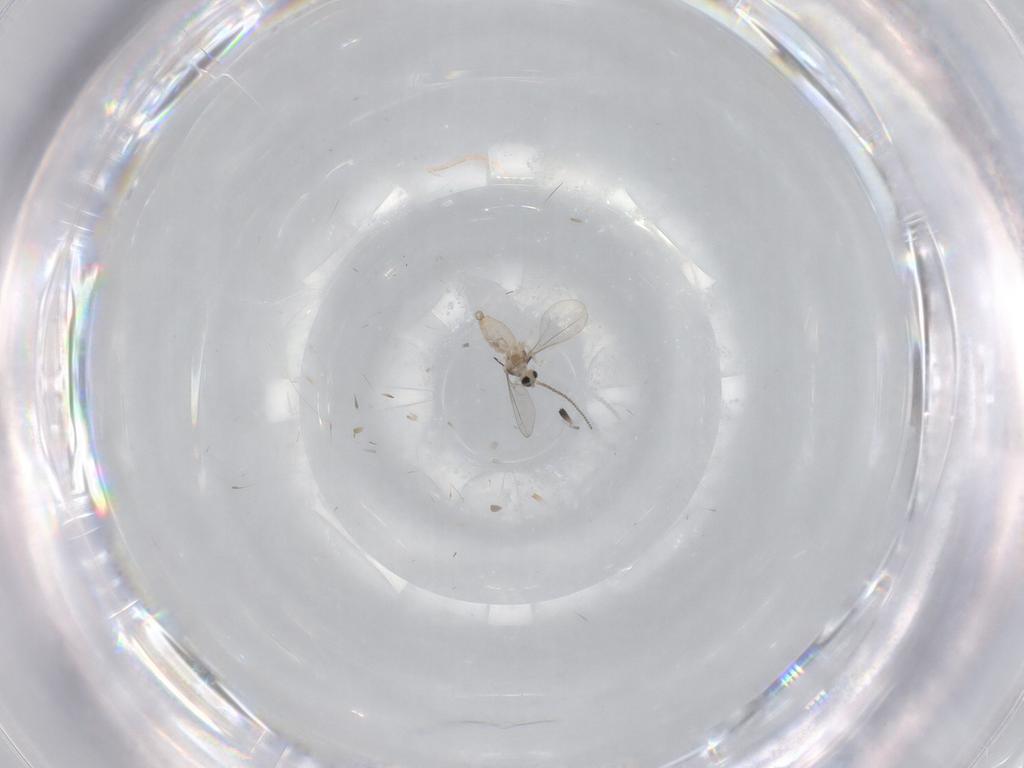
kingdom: Animalia
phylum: Arthropoda
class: Insecta
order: Diptera
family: Cecidomyiidae
